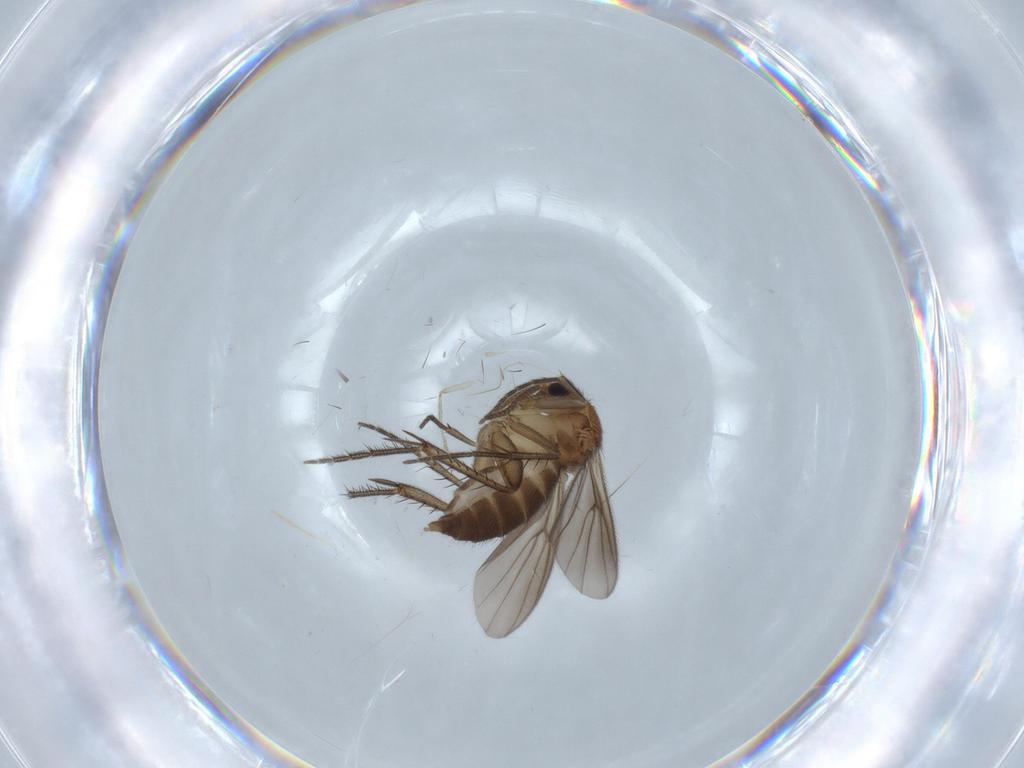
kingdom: Animalia
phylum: Arthropoda
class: Insecta
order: Diptera
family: Mycetophilidae
